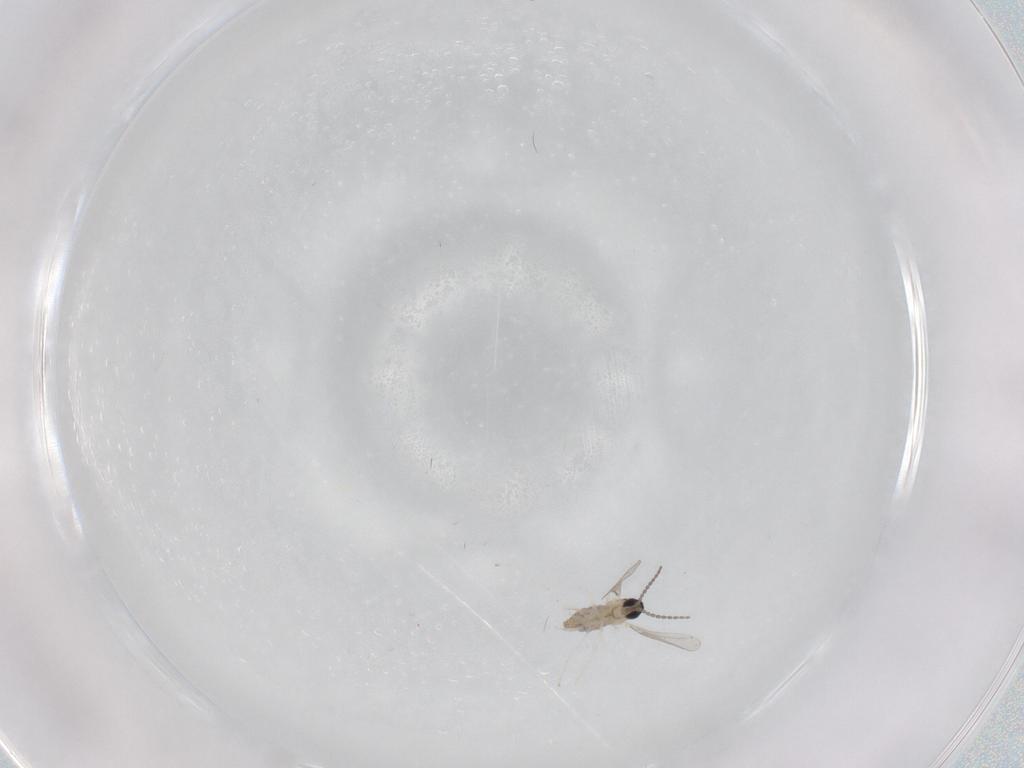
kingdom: Animalia
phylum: Arthropoda
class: Insecta
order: Diptera
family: Cecidomyiidae
